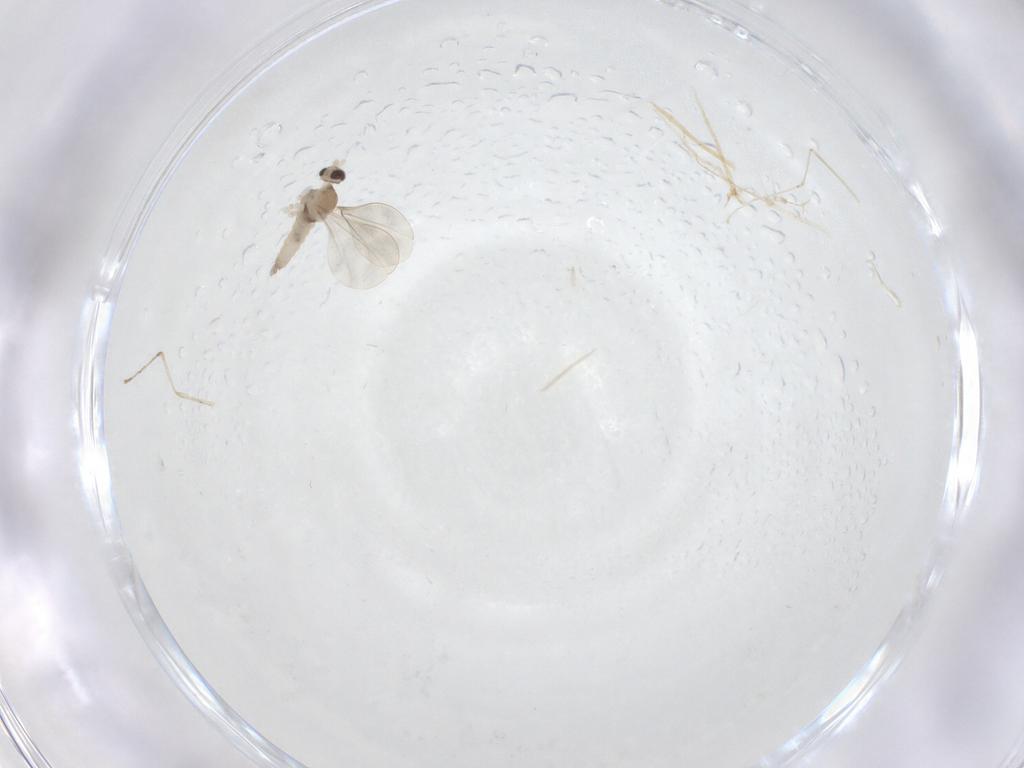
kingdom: Animalia
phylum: Arthropoda
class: Insecta
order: Diptera
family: Cecidomyiidae
